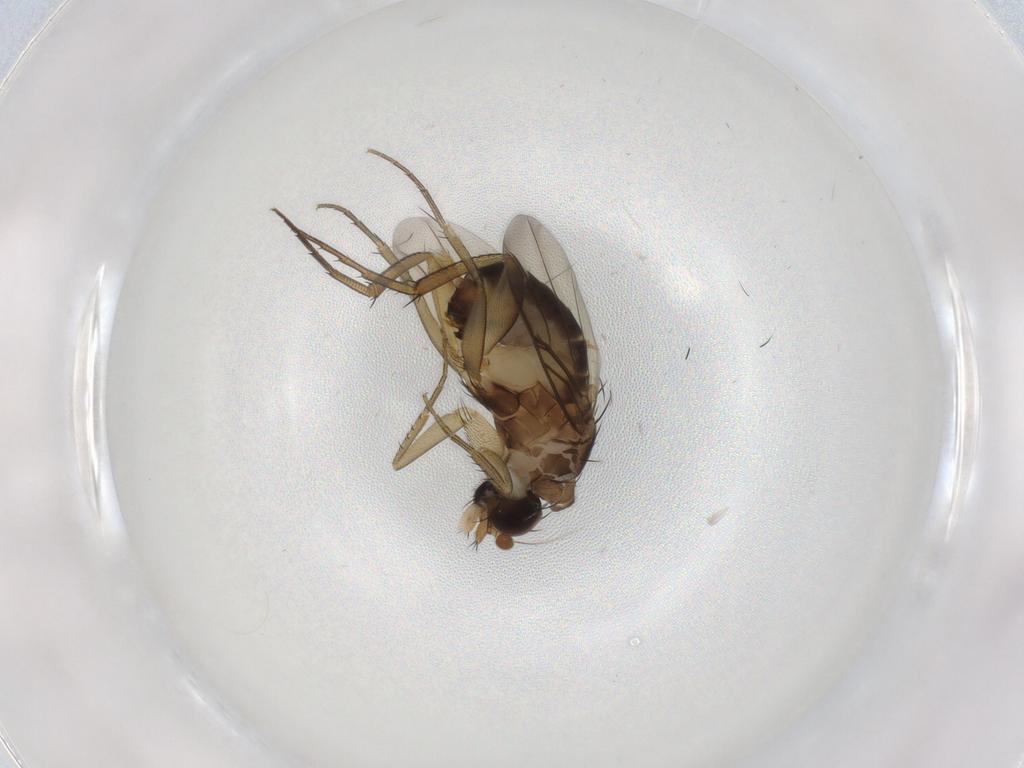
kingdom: Animalia
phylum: Arthropoda
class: Insecta
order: Diptera
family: Phoridae
